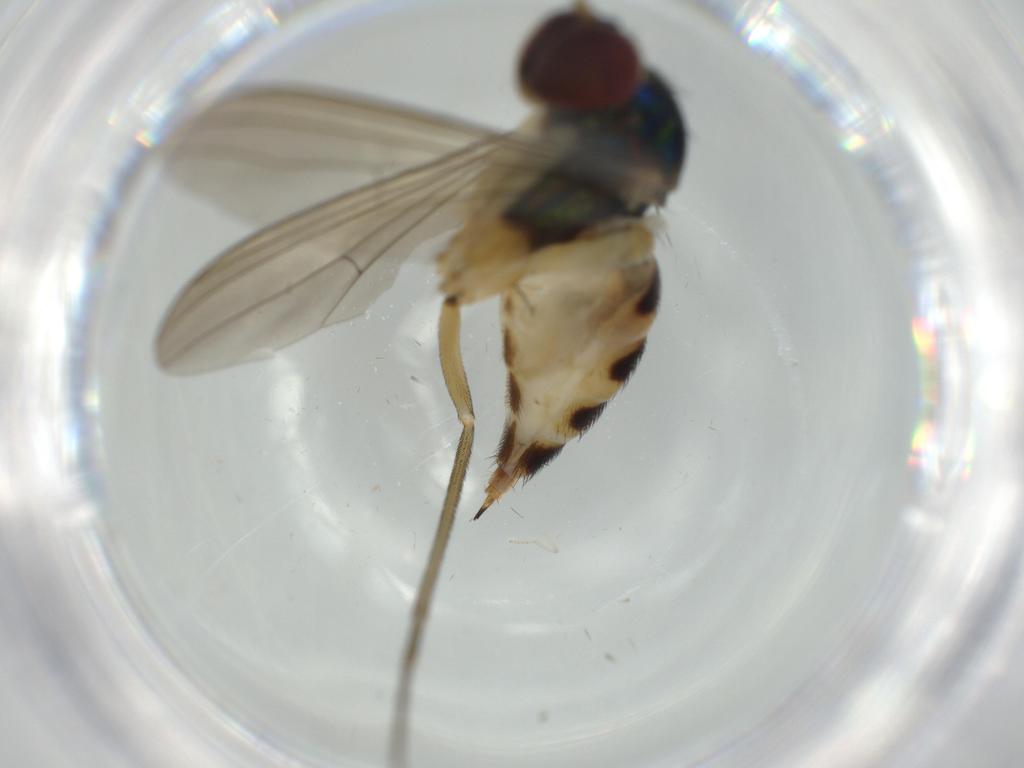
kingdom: Animalia
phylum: Arthropoda
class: Insecta
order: Diptera
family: Dolichopodidae
